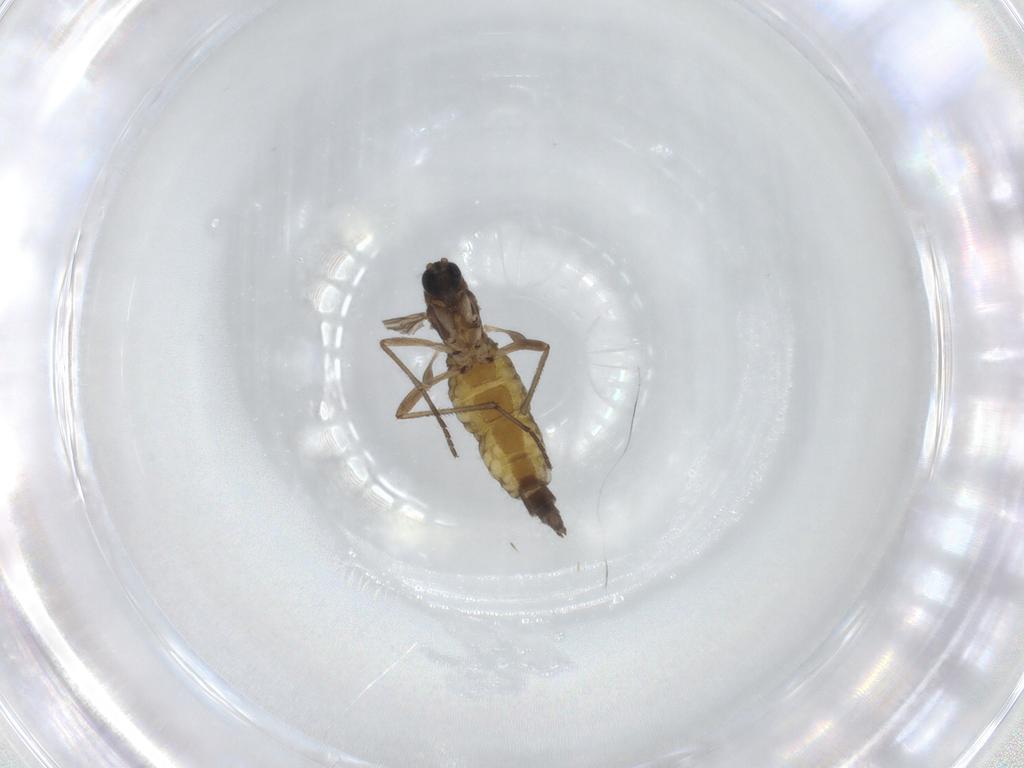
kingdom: Animalia
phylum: Arthropoda
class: Insecta
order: Diptera
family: Sciaridae
